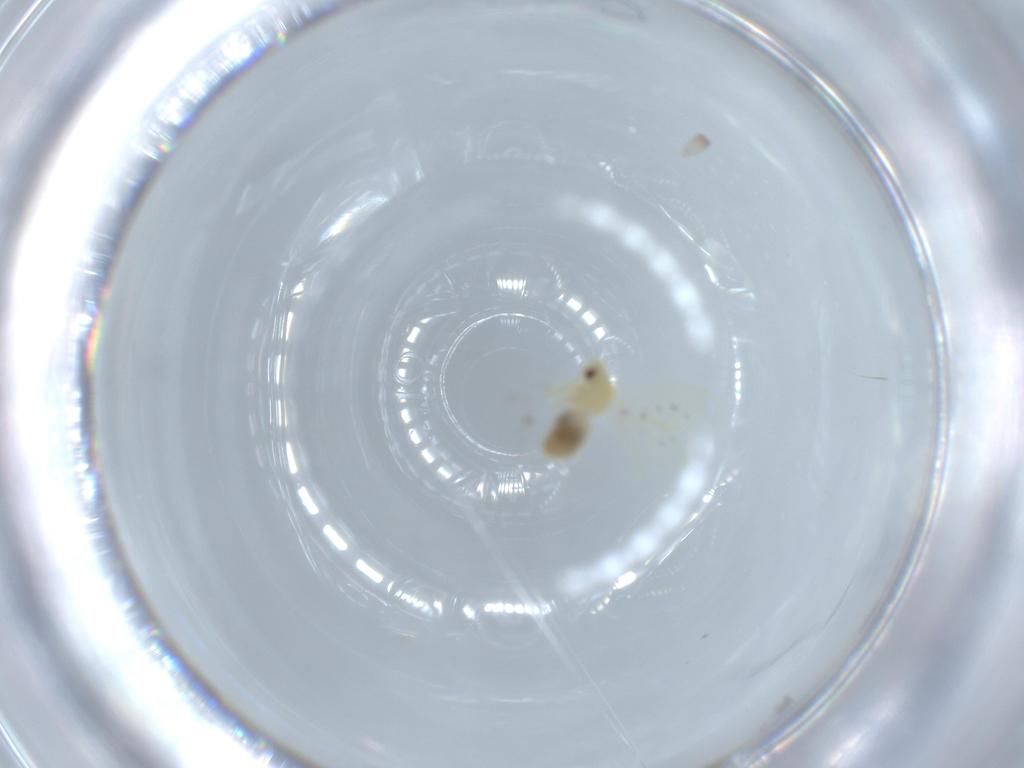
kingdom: Animalia
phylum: Arthropoda
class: Insecta
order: Hemiptera
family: Aleyrodidae
